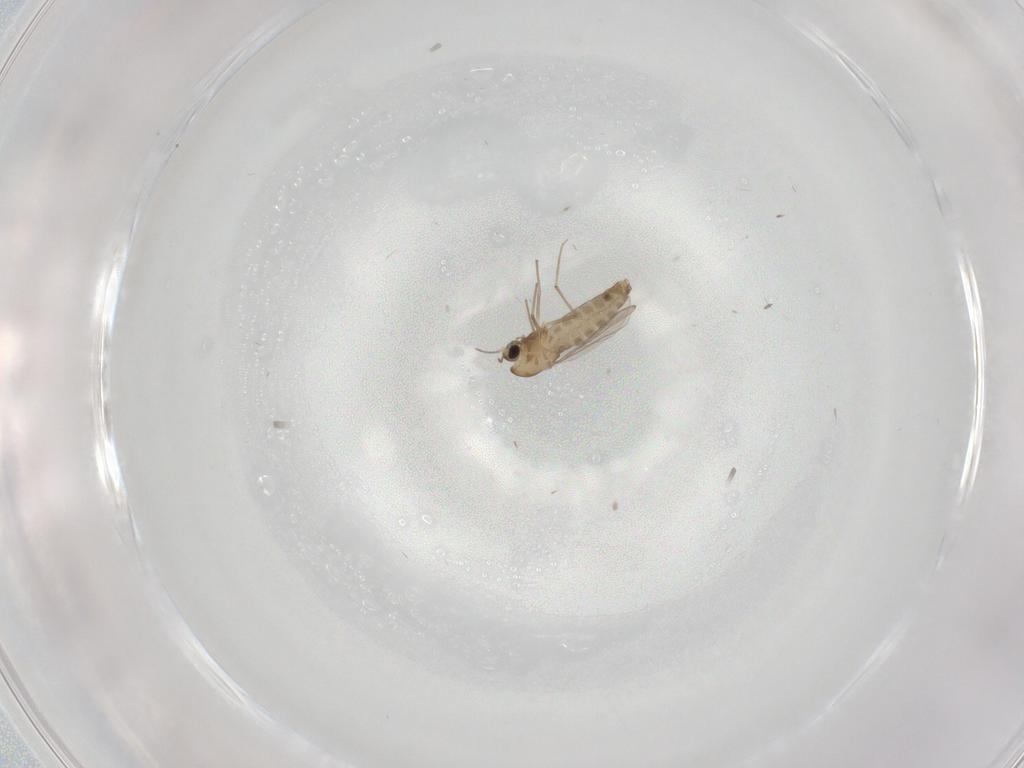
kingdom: Animalia
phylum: Arthropoda
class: Insecta
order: Diptera
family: Chironomidae
